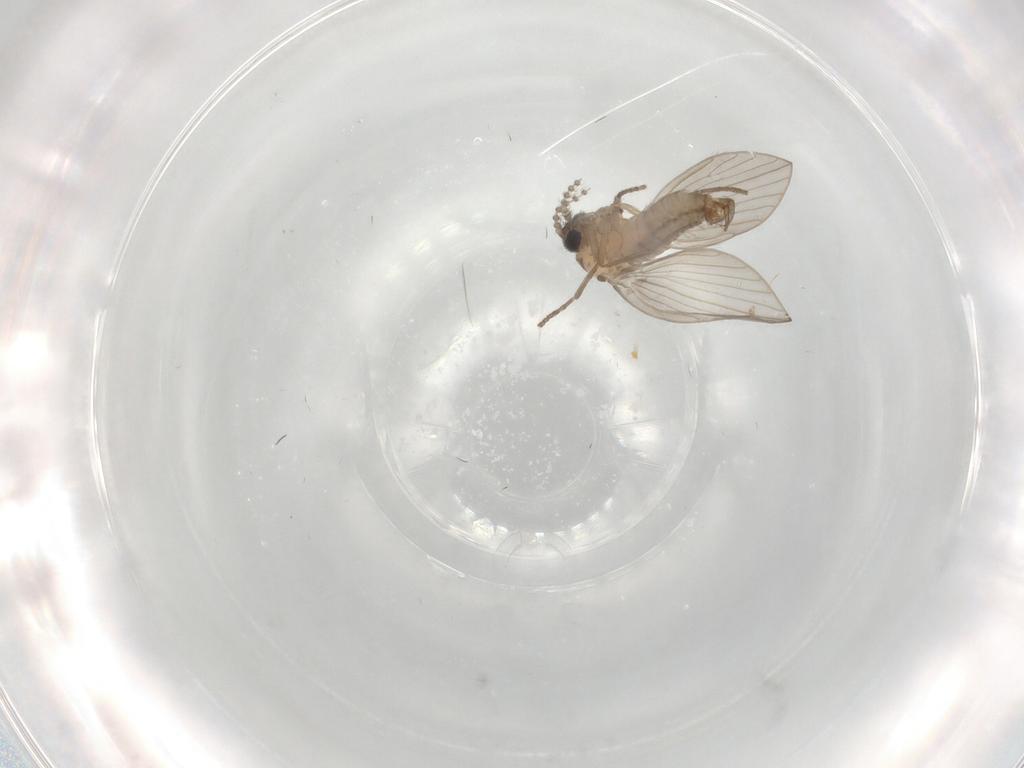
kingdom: Animalia
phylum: Arthropoda
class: Insecta
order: Diptera
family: Psychodidae
